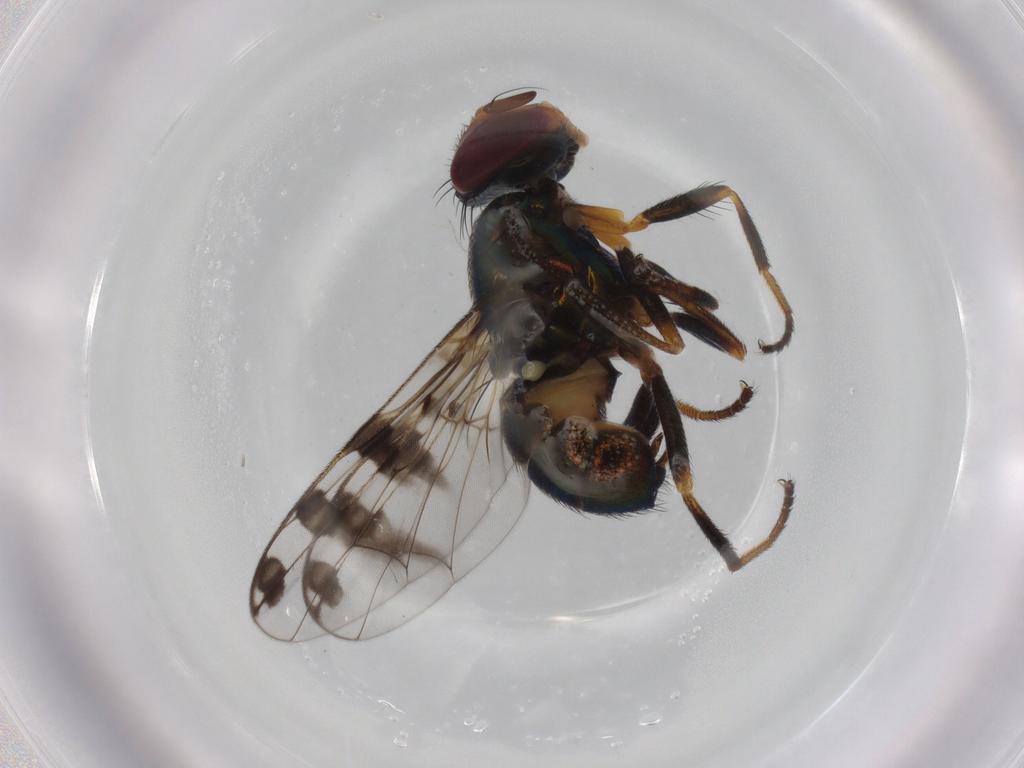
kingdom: Animalia
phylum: Arthropoda
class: Insecta
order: Diptera
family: Platystomatidae
